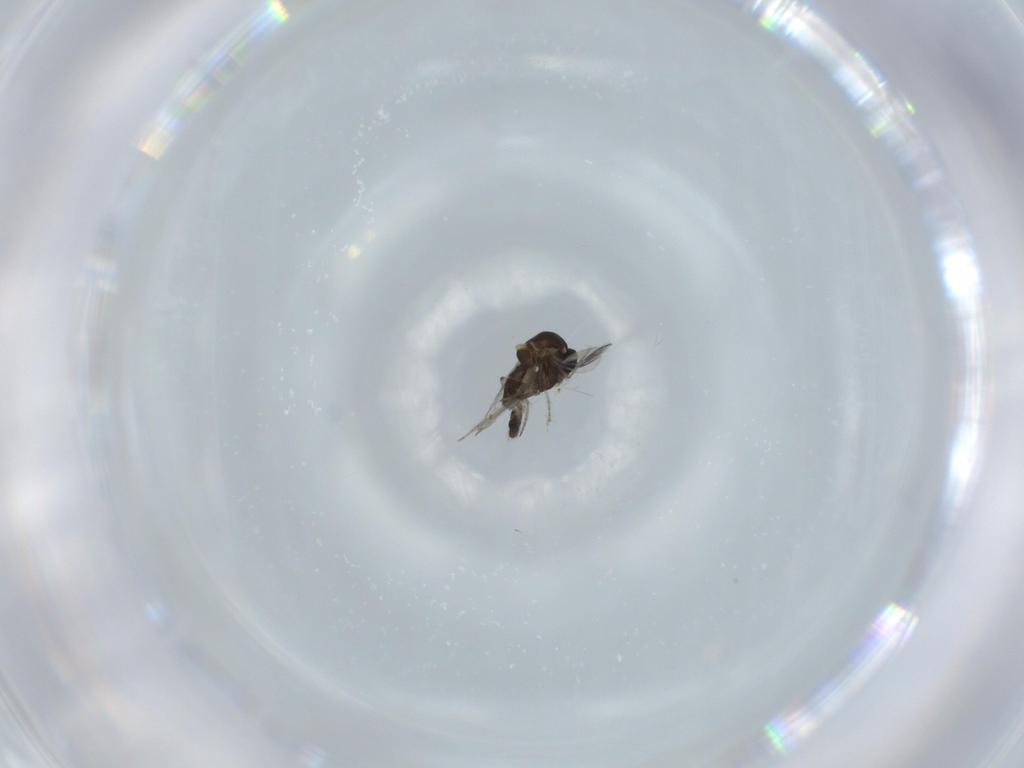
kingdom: Animalia
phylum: Arthropoda
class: Insecta
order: Diptera
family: Ceratopogonidae
